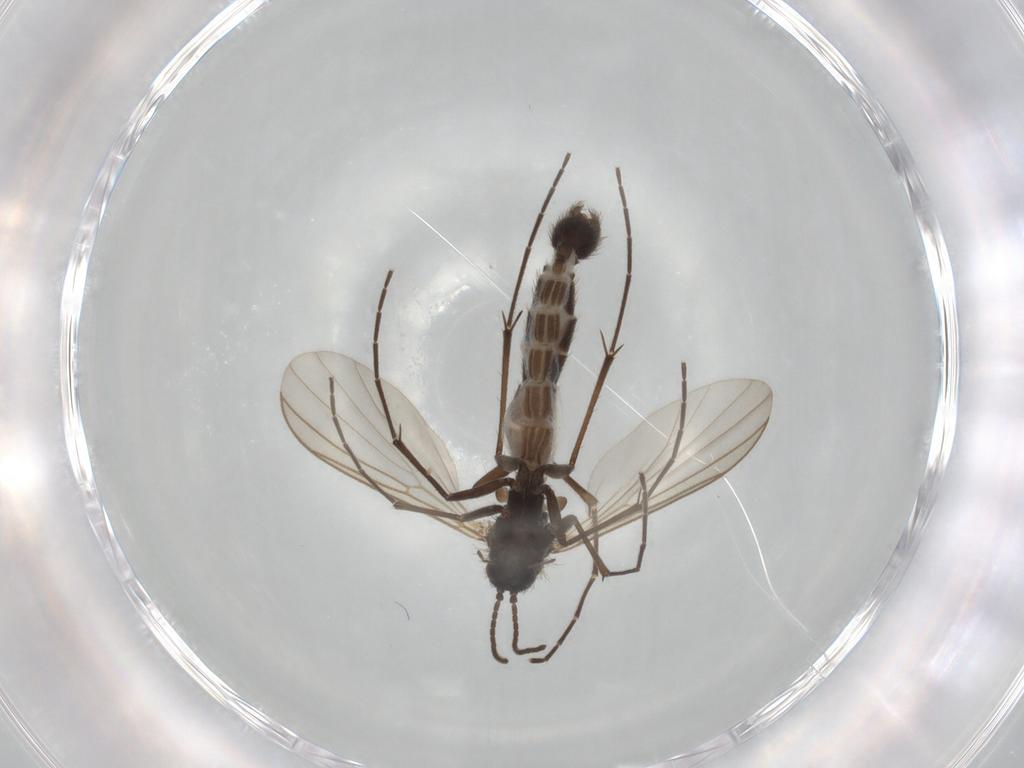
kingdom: Animalia
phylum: Arthropoda
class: Insecta
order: Diptera
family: Mycetophilidae
